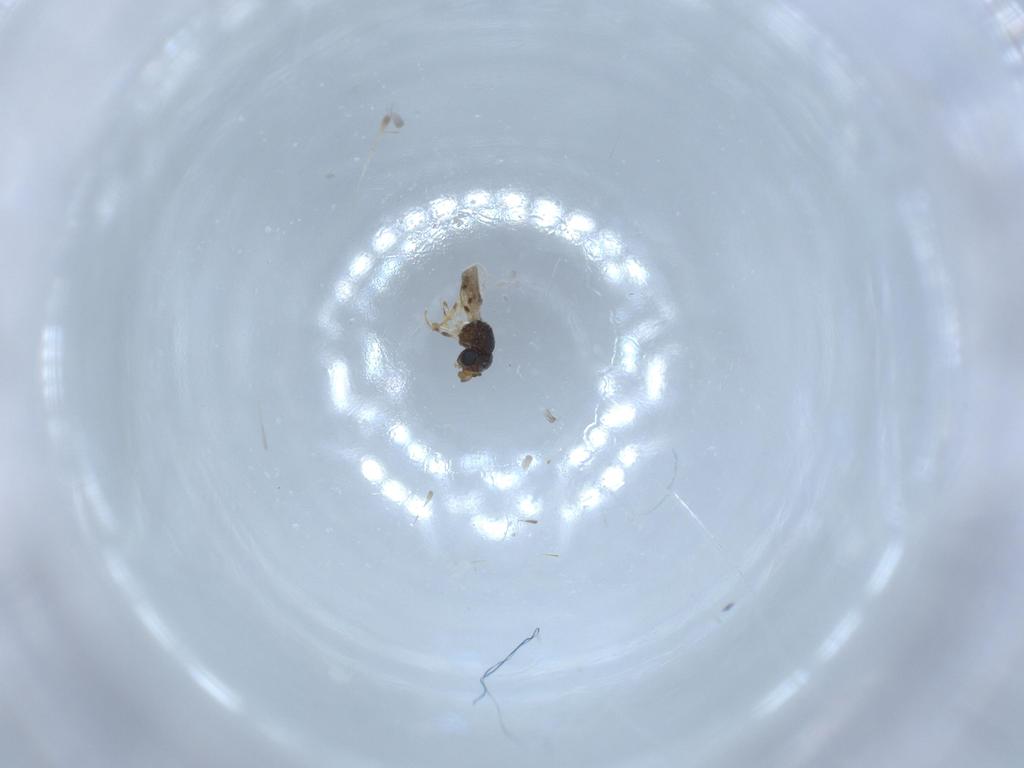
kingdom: Animalia
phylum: Arthropoda
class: Insecta
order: Hymenoptera
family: Scelionidae
